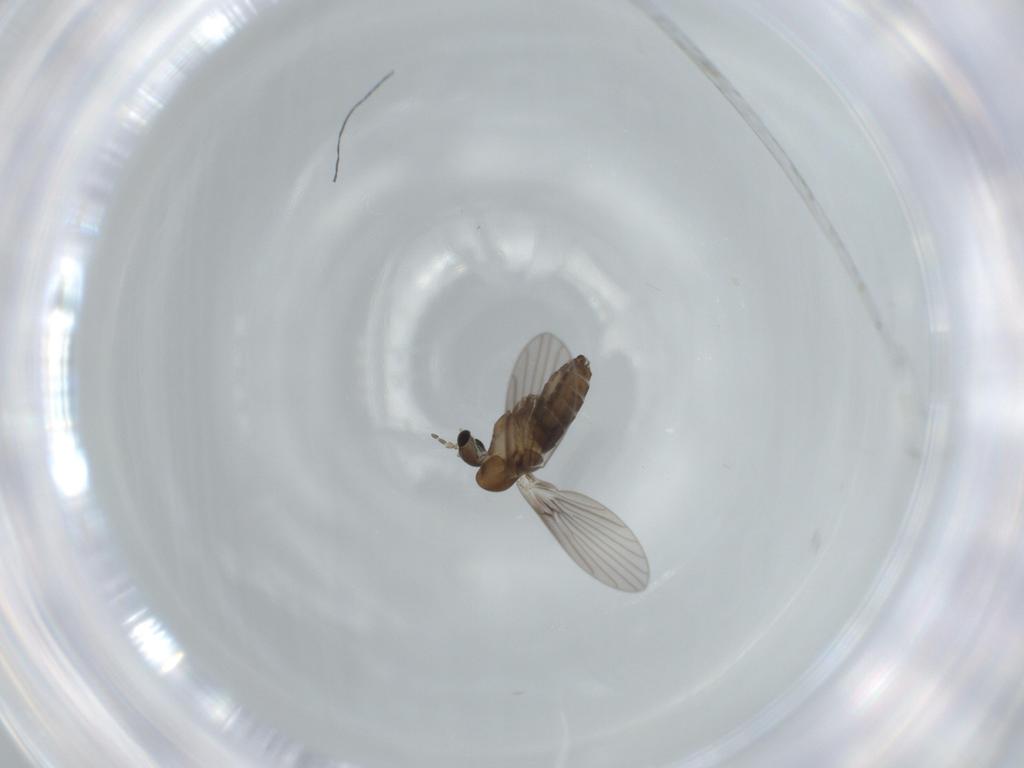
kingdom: Animalia
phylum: Arthropoda
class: Insecta
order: Diptera
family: Psychodidae
